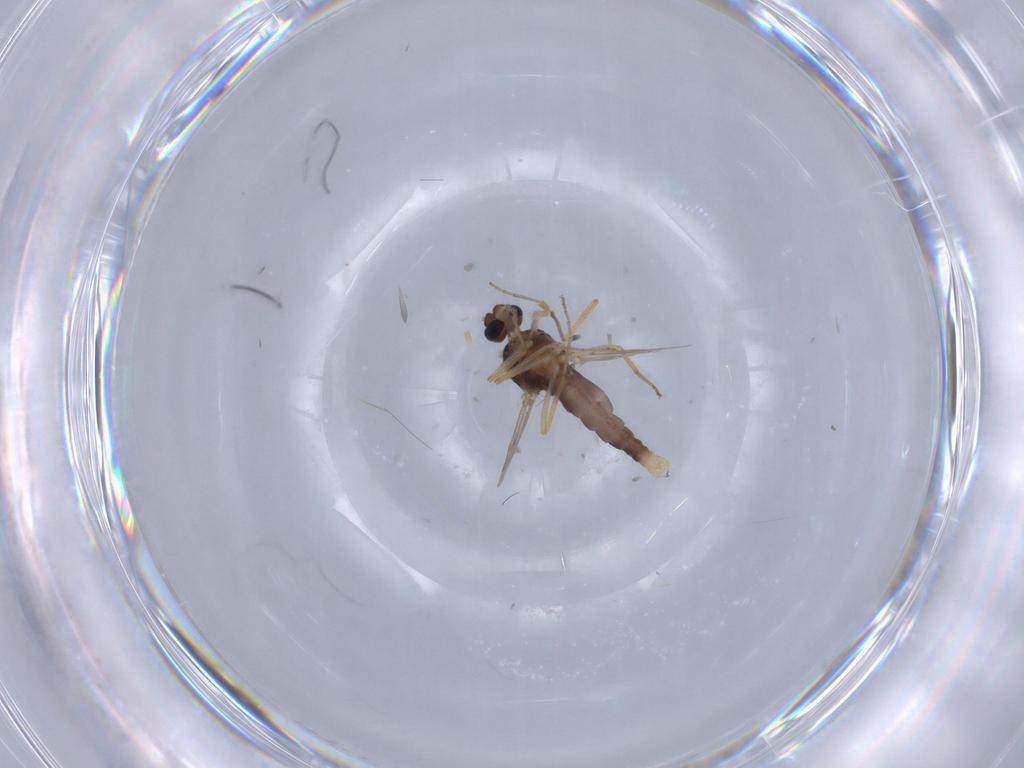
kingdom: Animalia
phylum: Arthropoda
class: Insecta
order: Diptera
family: Ceratopogonidae
